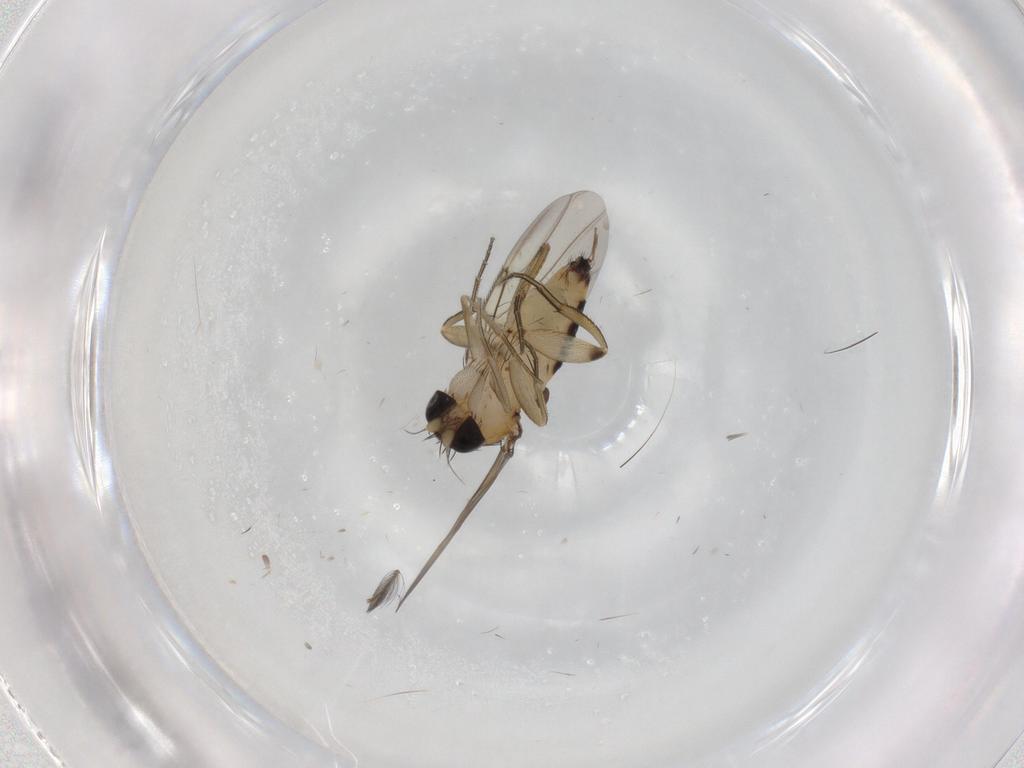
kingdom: Animalia
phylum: Arthropoda
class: Insecta
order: Diptera
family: Phoridae
